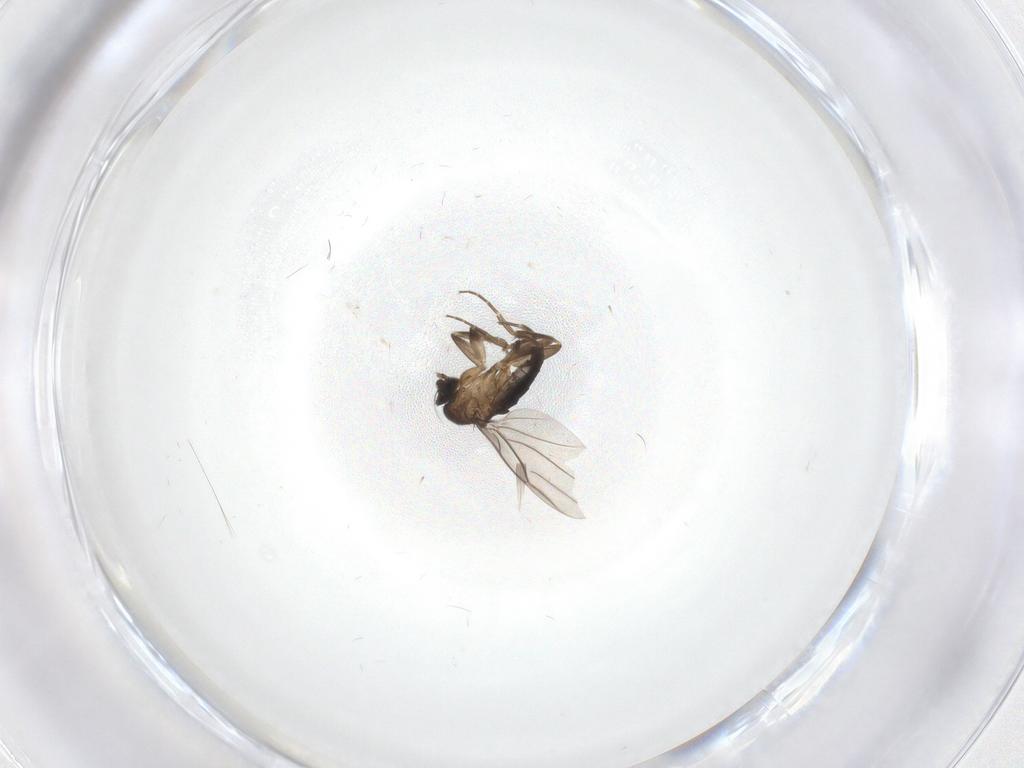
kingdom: Animalia
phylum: Arthropoda
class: Insecta
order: Diptera
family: Sciaridae
